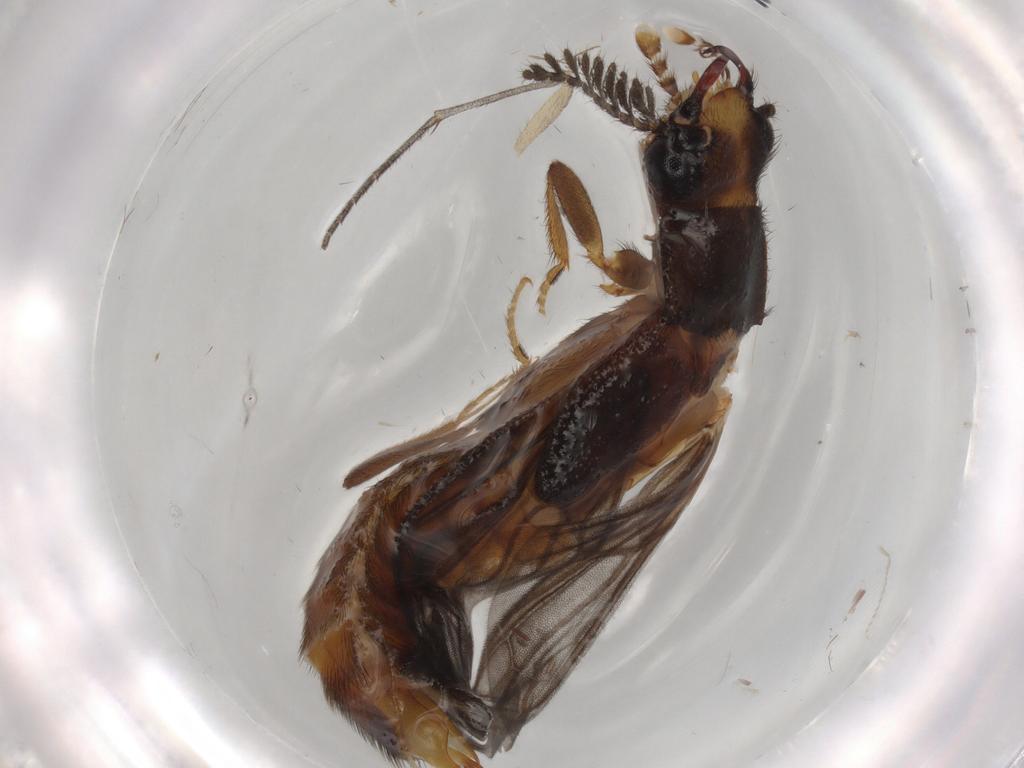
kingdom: Animalia
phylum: Arthropoda
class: Insecta
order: Coleoptera
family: Phengodidae
